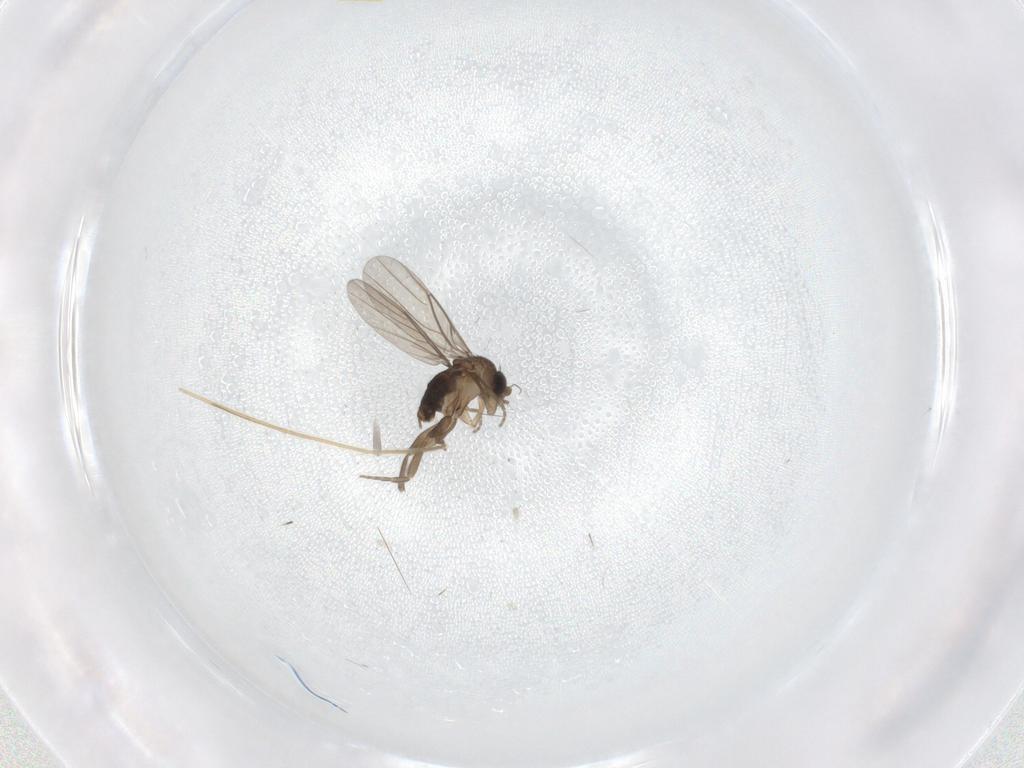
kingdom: Animalia
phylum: Arthropoda
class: Insecta
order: Diptera
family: Chironomidae
